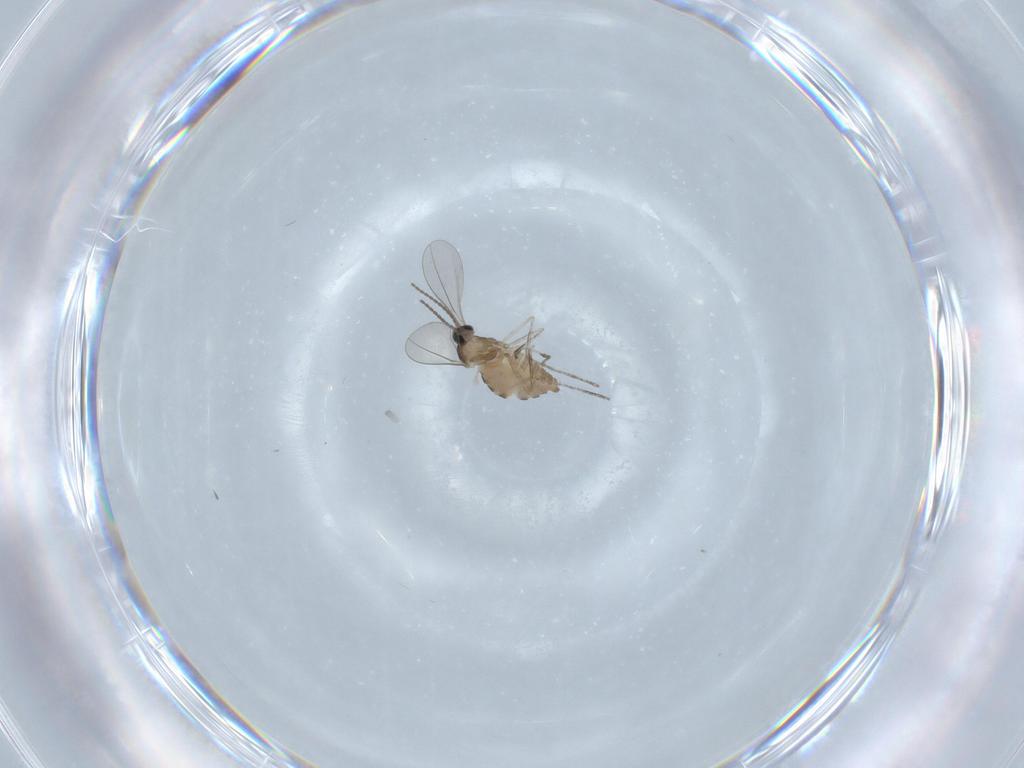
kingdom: Animalia
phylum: Arthropoda
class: Insecta
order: Diptera
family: Cecidomyiidae
